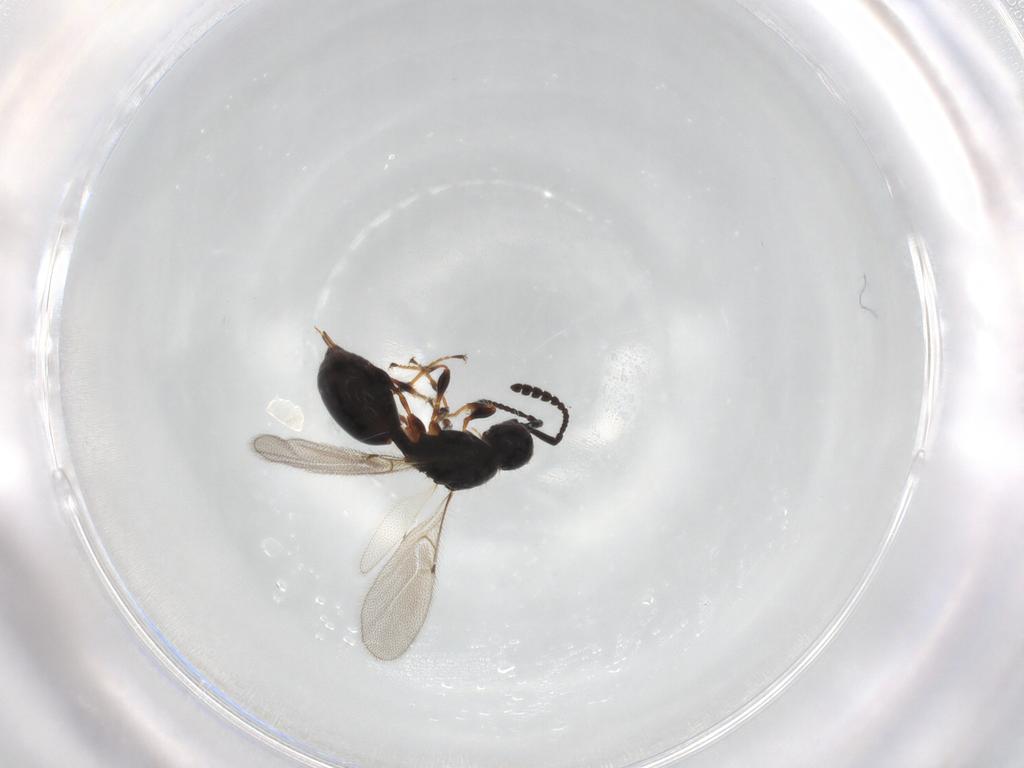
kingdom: Animalia
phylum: Arthropoda
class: Insecta
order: Hymenoptera
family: Diapriidae
